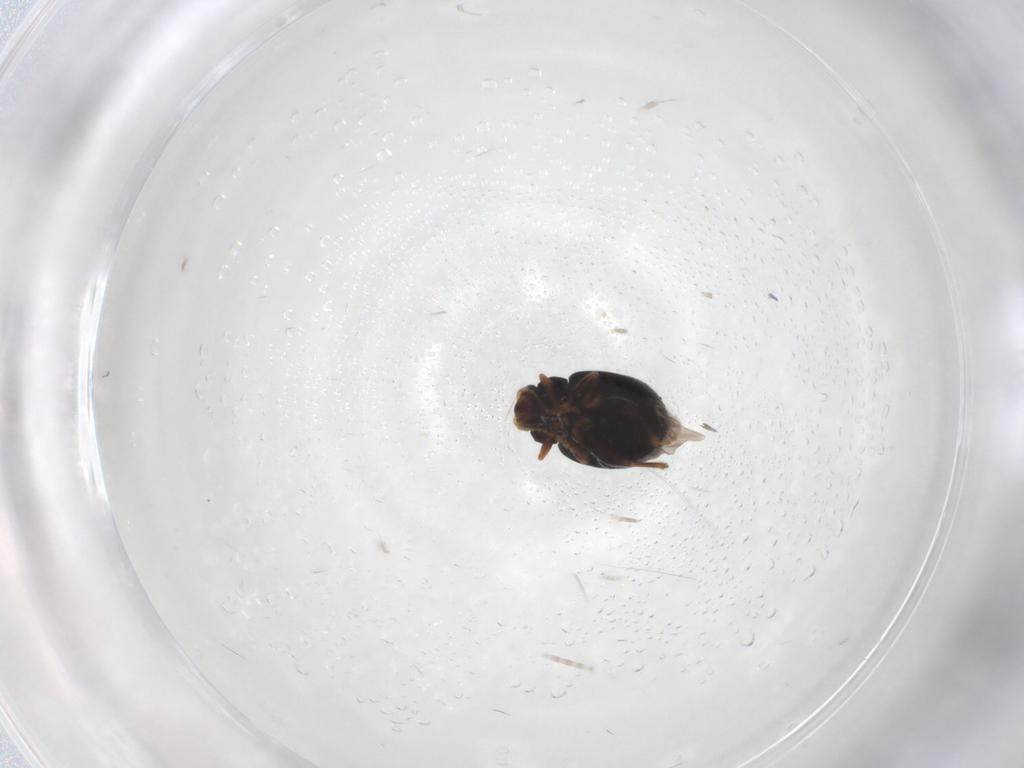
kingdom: Animalia
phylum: Arthropoda
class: Insecta
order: Coleoptera
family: Chrysomelidae
